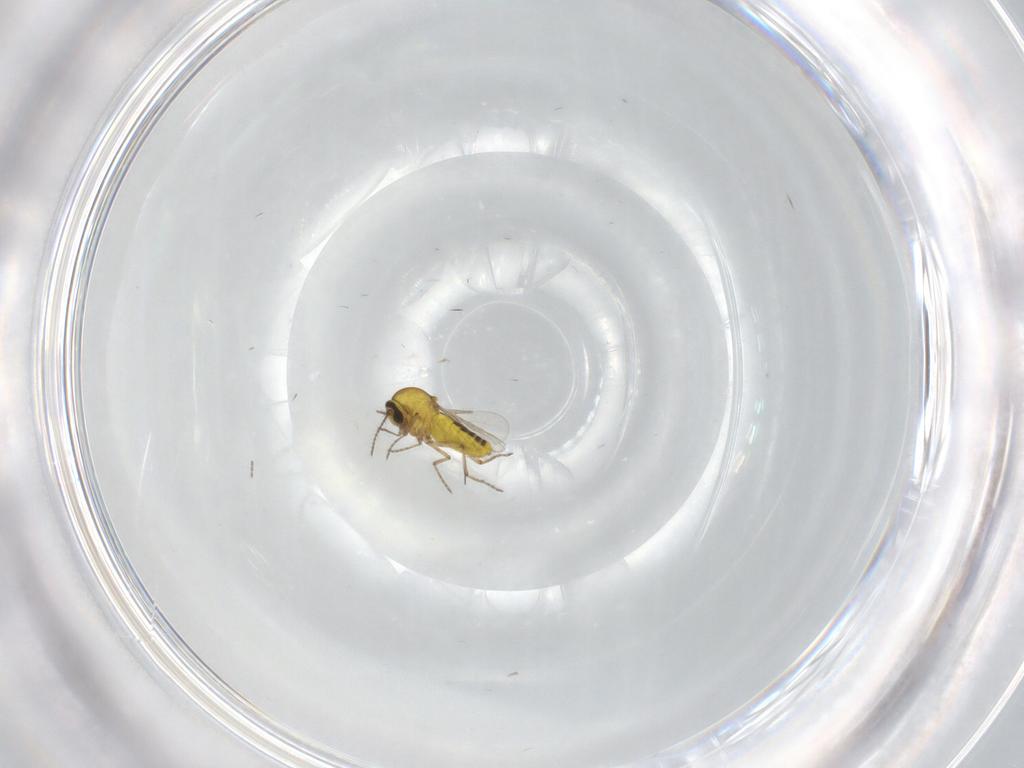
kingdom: Animalia
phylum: Arthropoda
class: Insecta
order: Diptera
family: Ceratopogonidae
